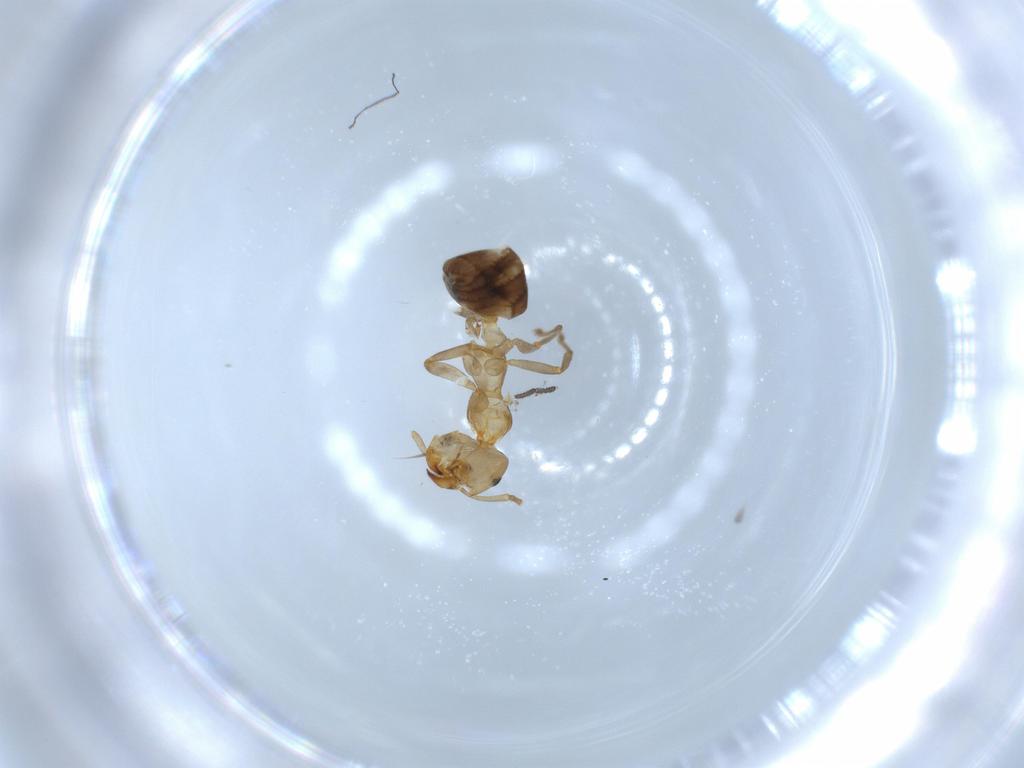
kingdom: Animalia
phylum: Arthropoda
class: Insecta
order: Hymenoptera
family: Formicidae
